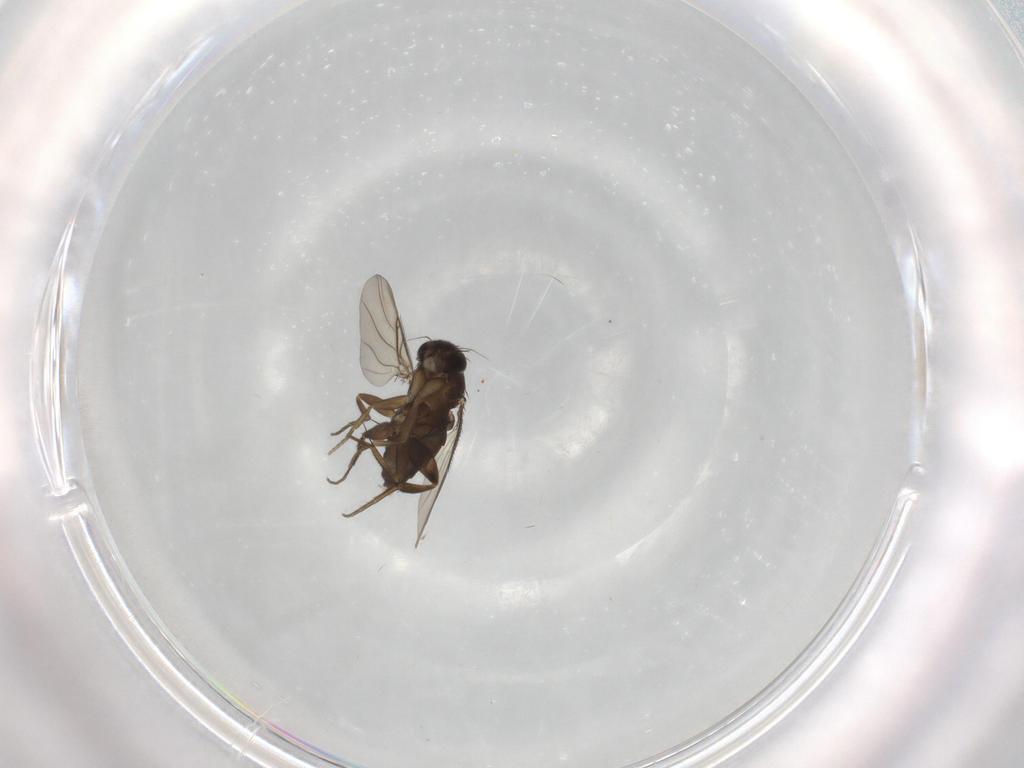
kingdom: Animalia
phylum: Arthropoda
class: Insecta
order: Diptera
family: Phoridae
